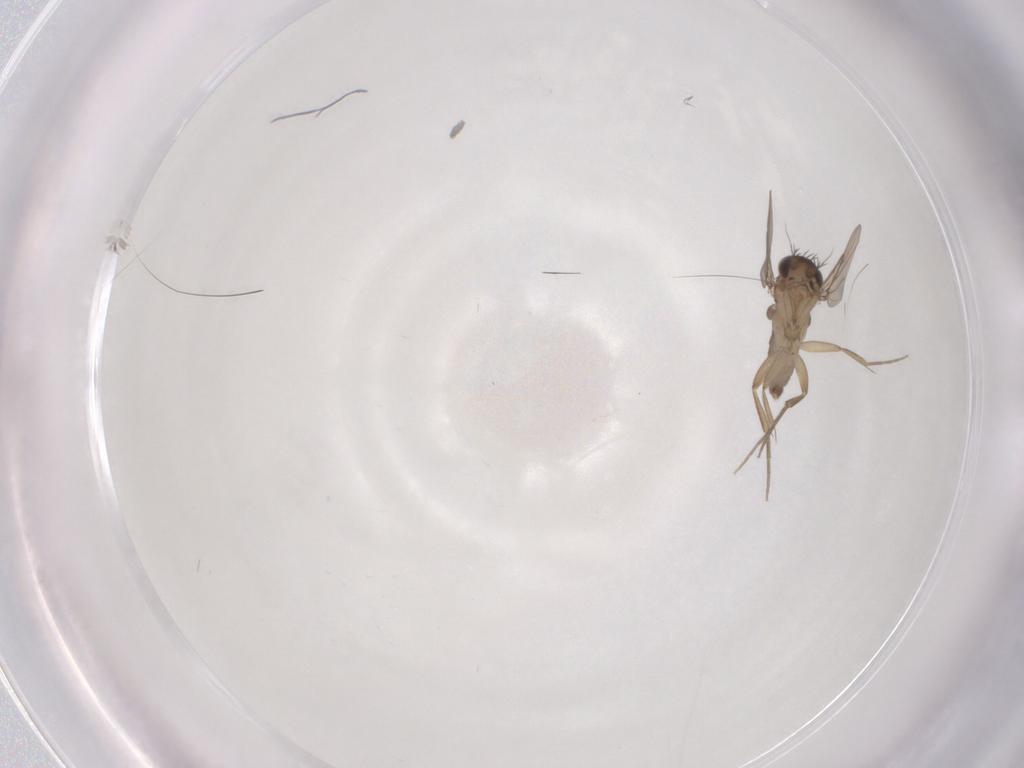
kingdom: Animalia
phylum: Arthropoda
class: Insecta
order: Diptera
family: Phoridae
